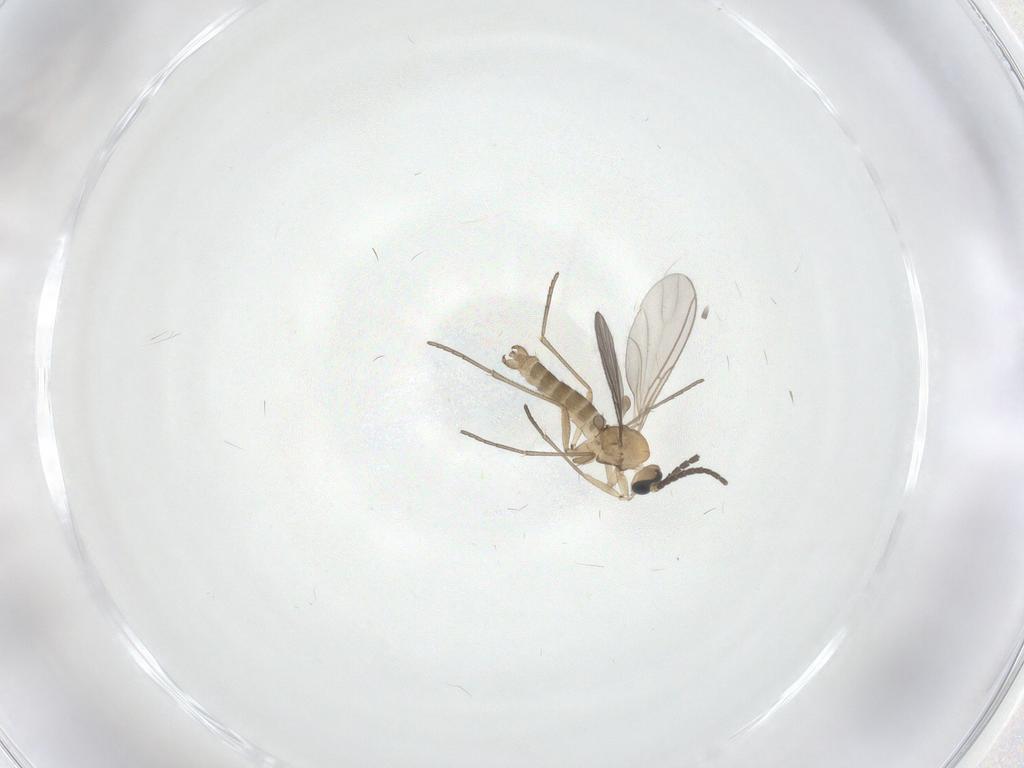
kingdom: Animalia
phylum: Arthropoda
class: Insecta
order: Diptera
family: Sciaridae
